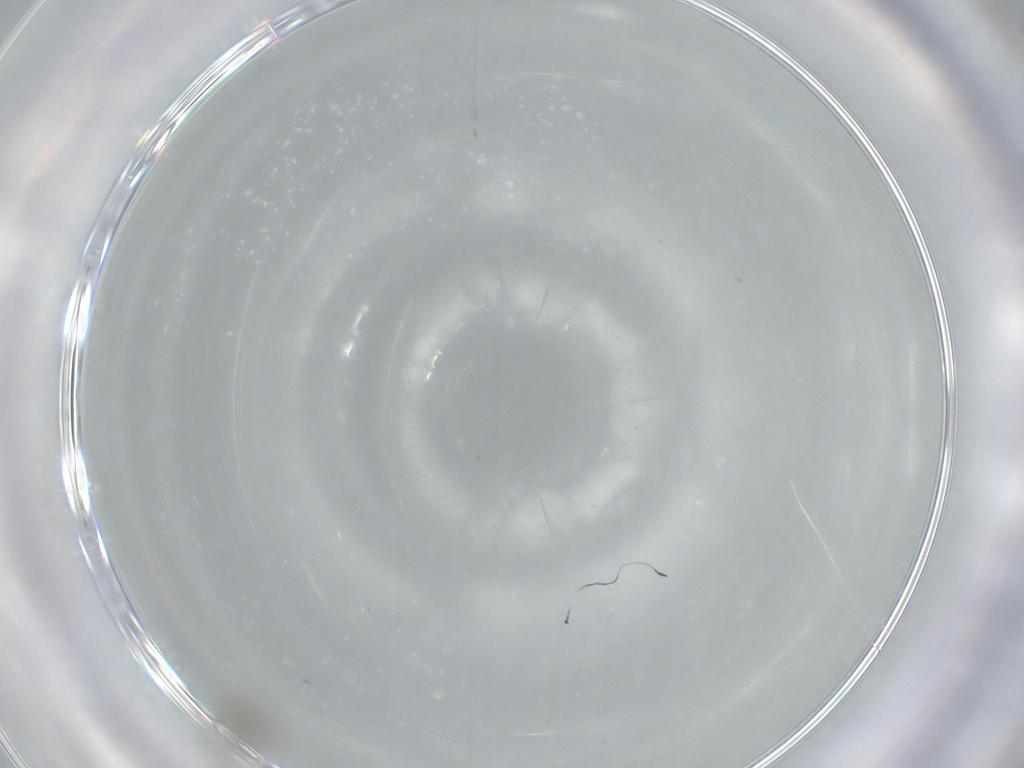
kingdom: Animalia
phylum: Arthropoda
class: Insecta
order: Diptera
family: Cecidomyiidae
